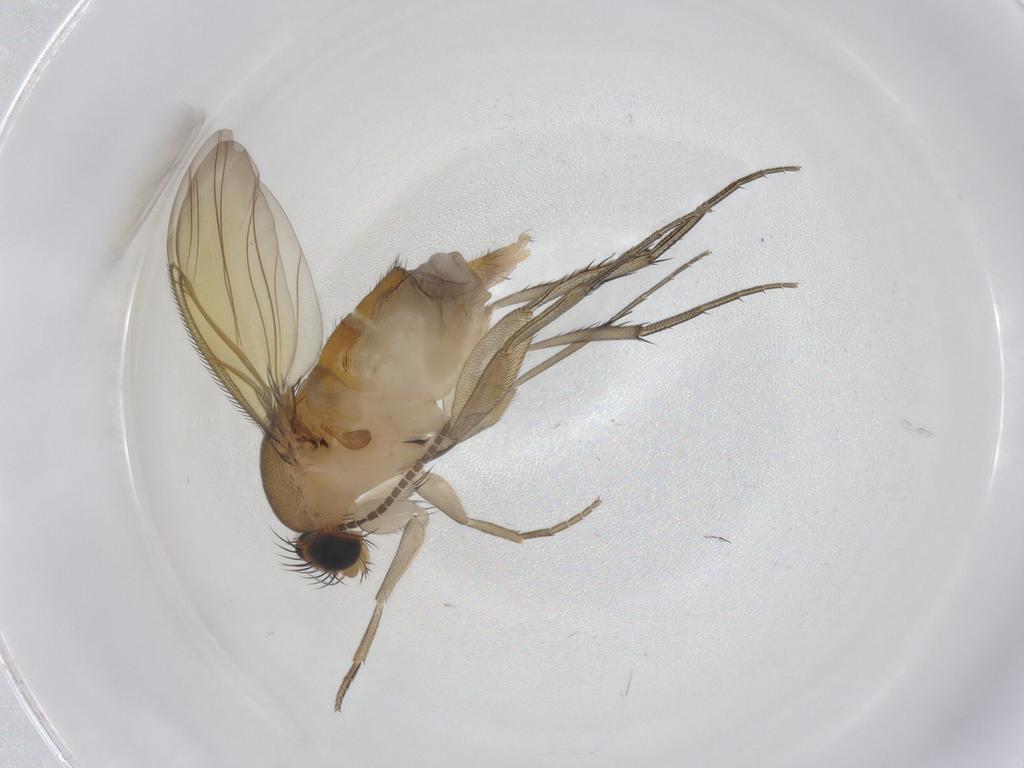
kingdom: Animalia
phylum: Arthropoda
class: Insecta
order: Diptera
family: Phoridae
